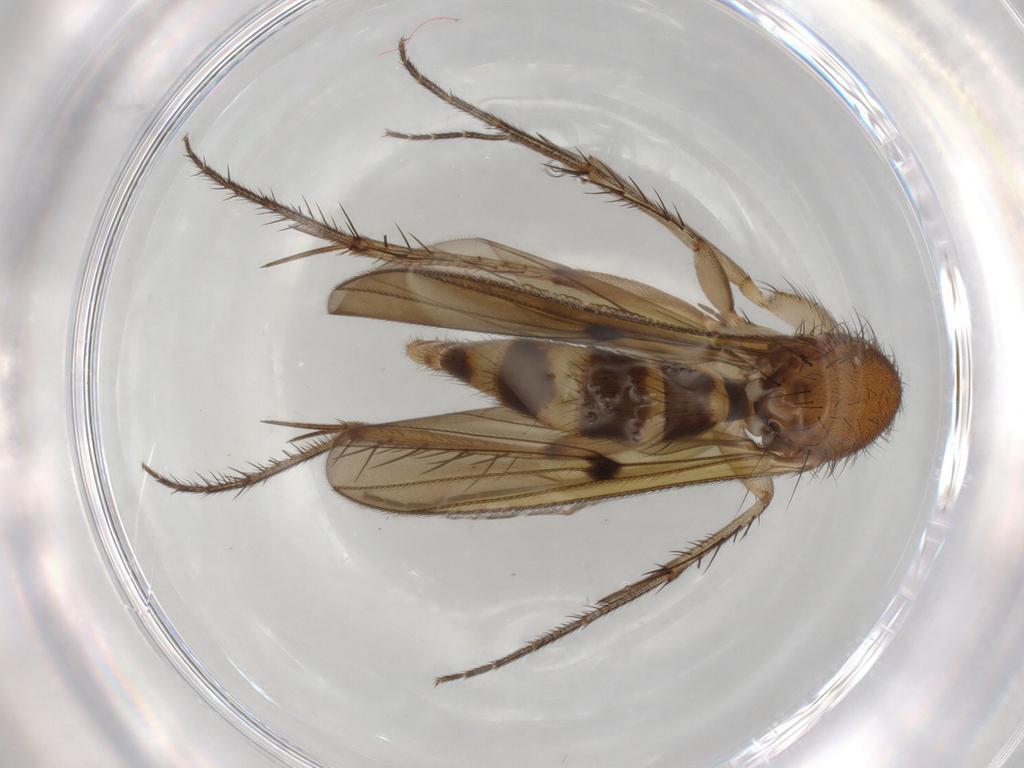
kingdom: Animalia
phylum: Arthropoda
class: Insecta
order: Diptera
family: Mycetophilidae
